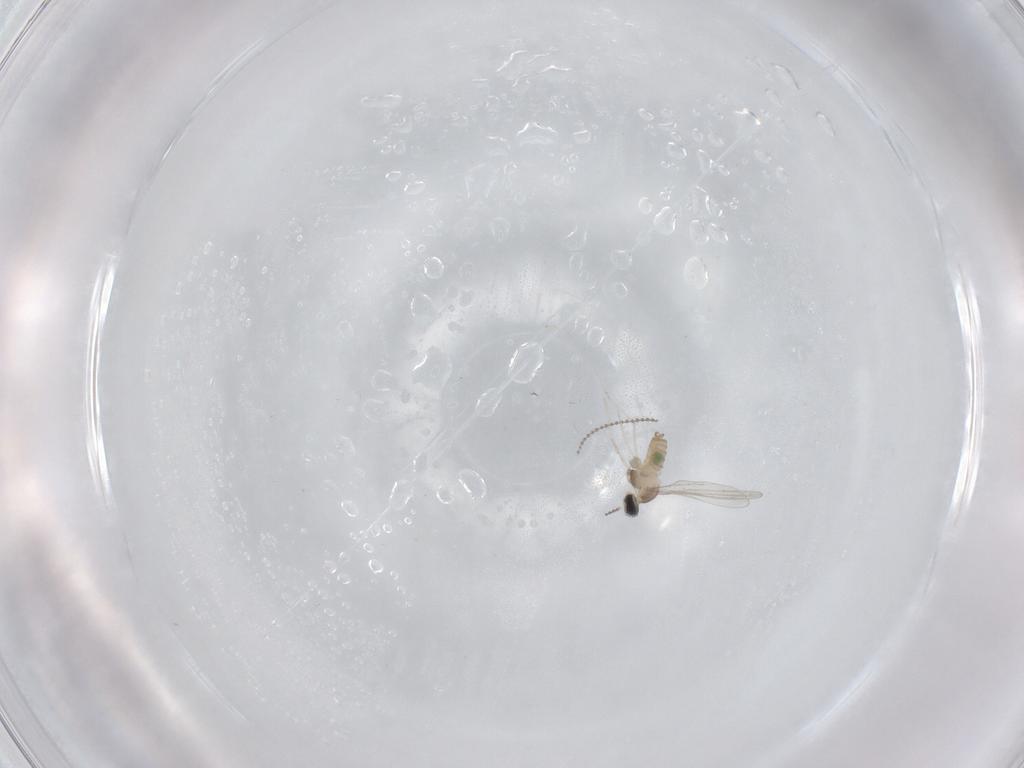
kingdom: Animalia
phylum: Arthropoda
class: Insecta
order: Diptera
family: Cecidomyiidae
